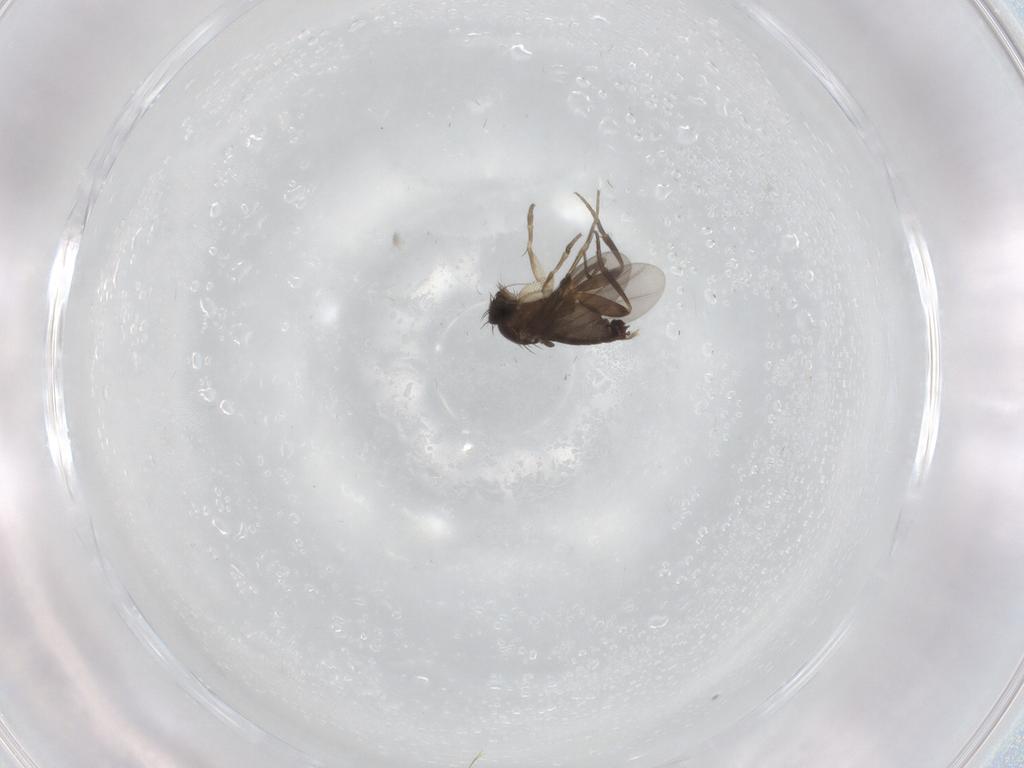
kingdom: Animalia
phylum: Arthropoda
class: Insecta
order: Diptera
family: Phoridae
